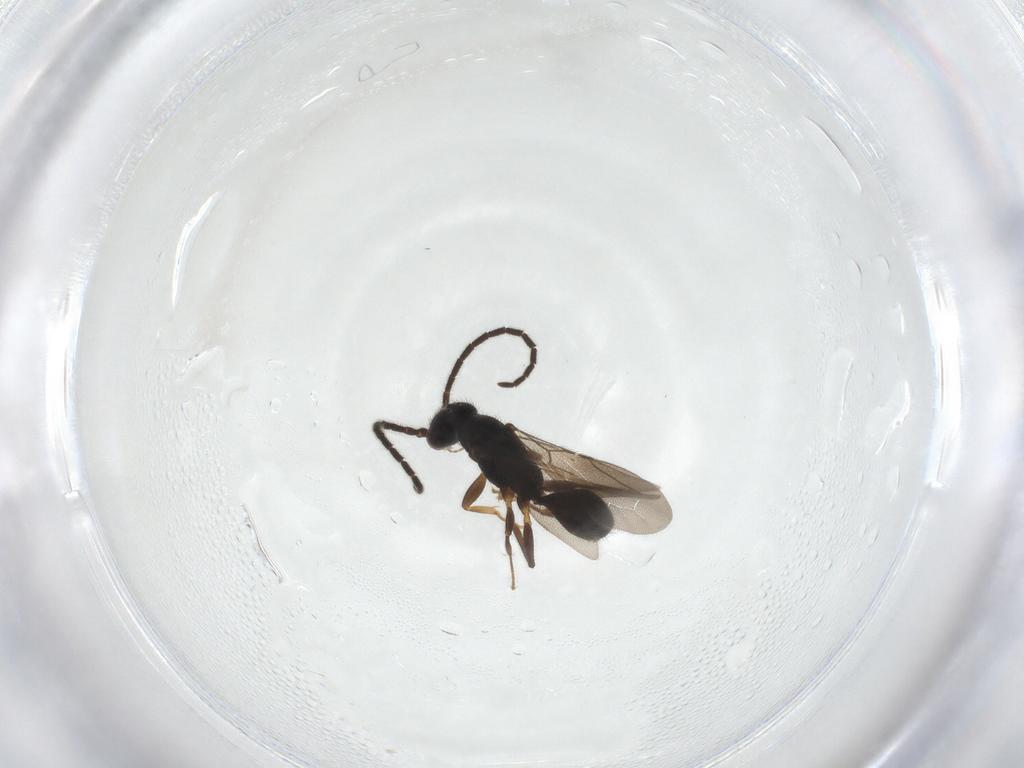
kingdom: Animalia
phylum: Arthropoda
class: Insecta
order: Hymenoptera
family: Bethylidae
